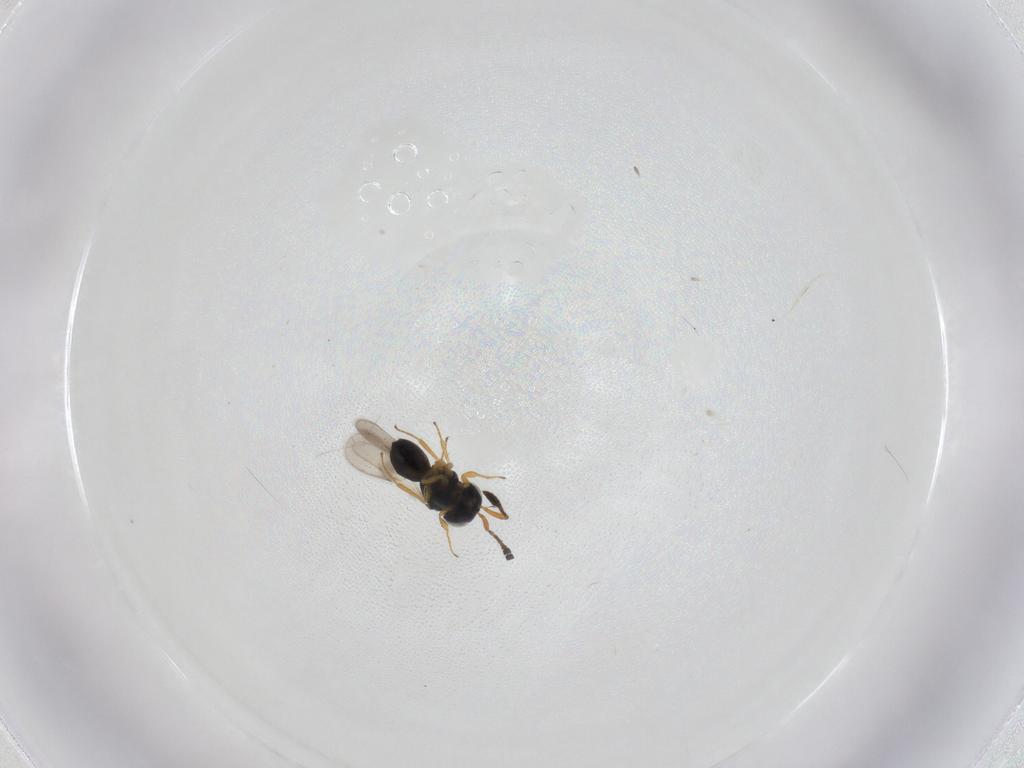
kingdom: Animalia
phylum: Arthropoda
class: Insecta
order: Hymenoptera
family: Scelionidae
